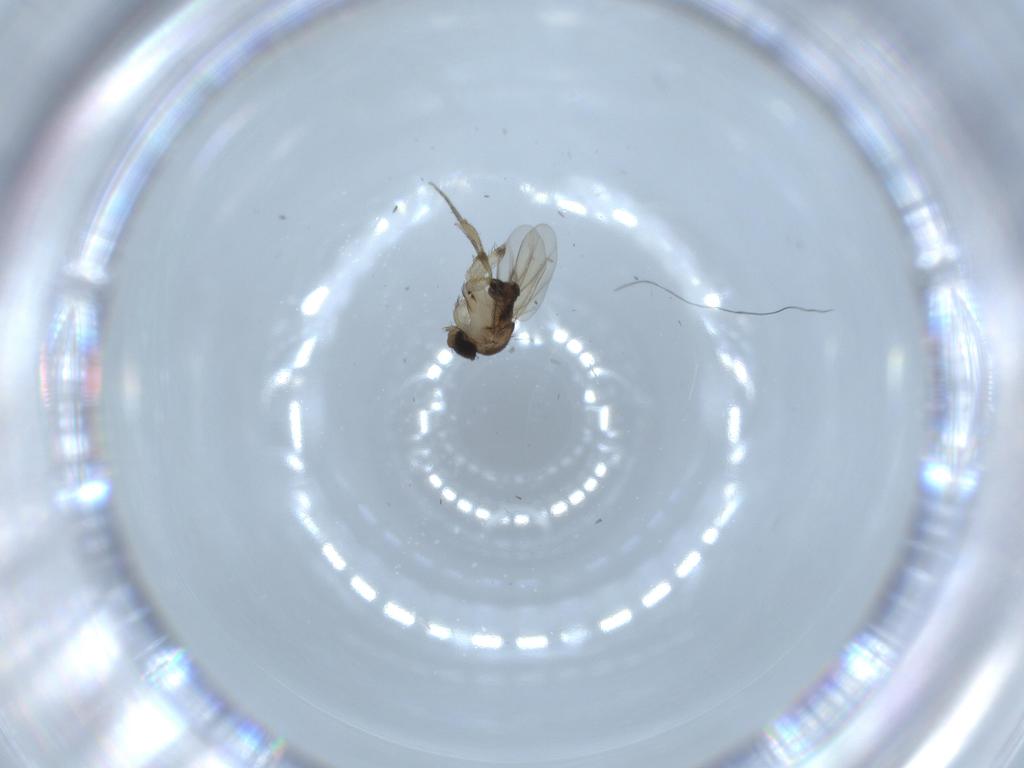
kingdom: Animalia
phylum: Arthropoda
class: Insecta
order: Diptera
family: Phoridae
